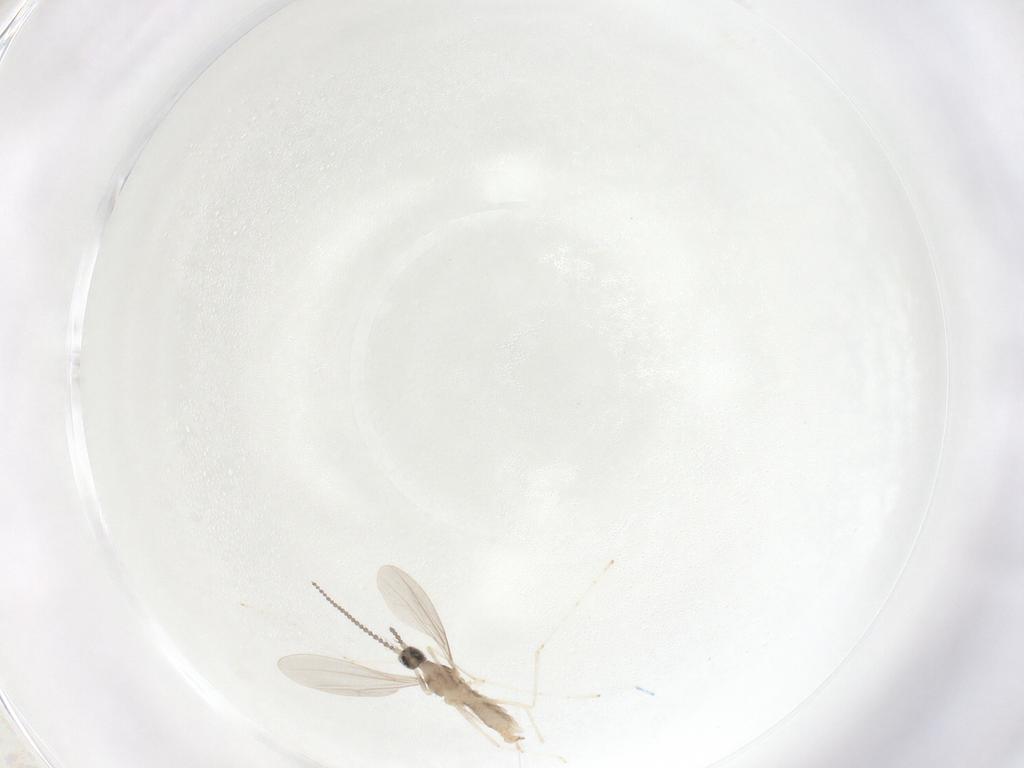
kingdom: Animalia
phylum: Arthropoda
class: Insecta
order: Diptera
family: Cecidomyiidae
